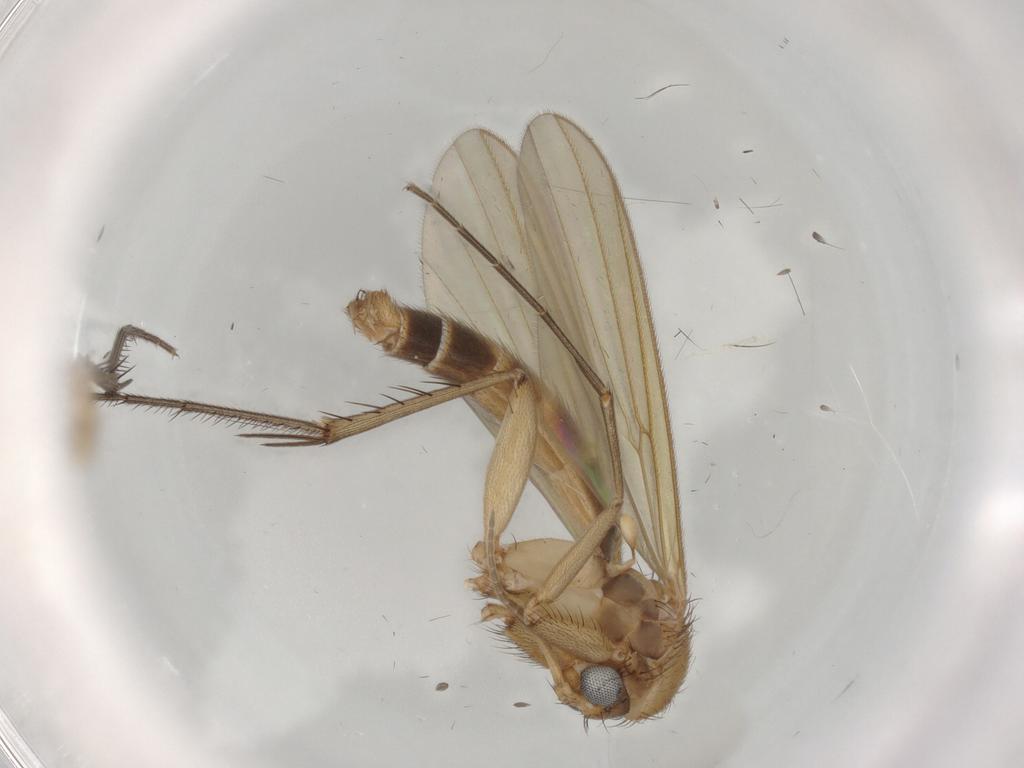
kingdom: Animalia
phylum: Arthropoda
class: Insecta
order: Diptera
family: Mycetophilidae
